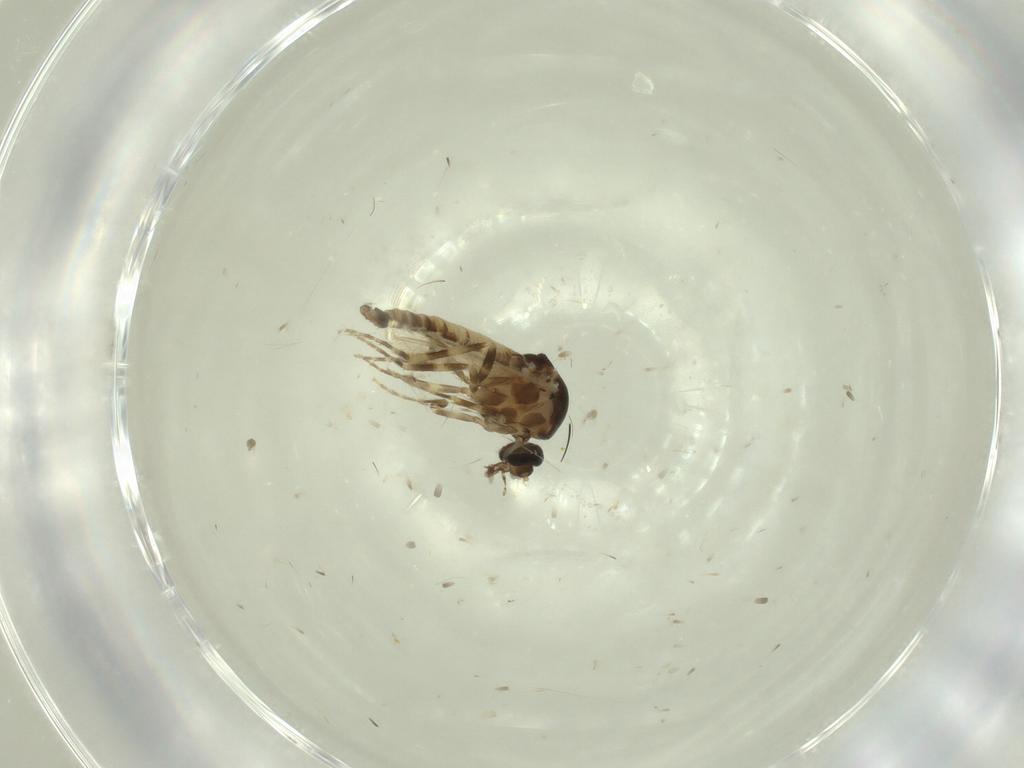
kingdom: Animalia
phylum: Arthropoda
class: Insecta
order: Diptera
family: Ceratopogonidae
